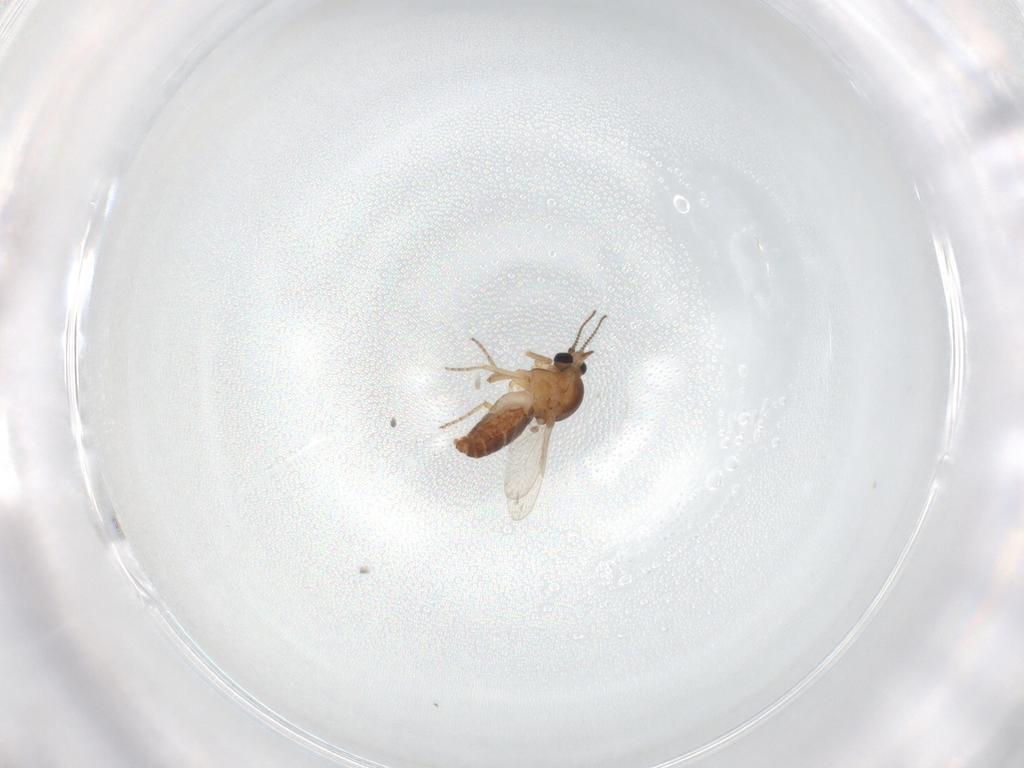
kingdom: Animalia
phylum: Arthropoda
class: Insecta
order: Diptera
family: Ceratopogonidae
